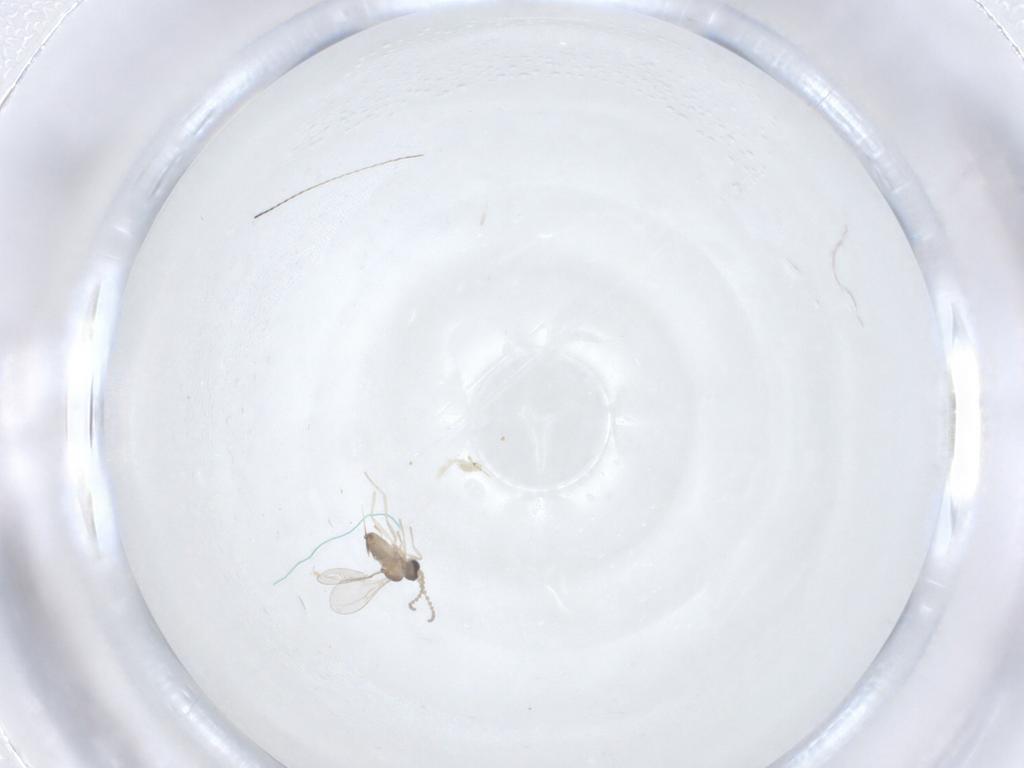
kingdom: Animalia
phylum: Arthropoda
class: Insecta
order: Diptera
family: Cecidomyiidae
